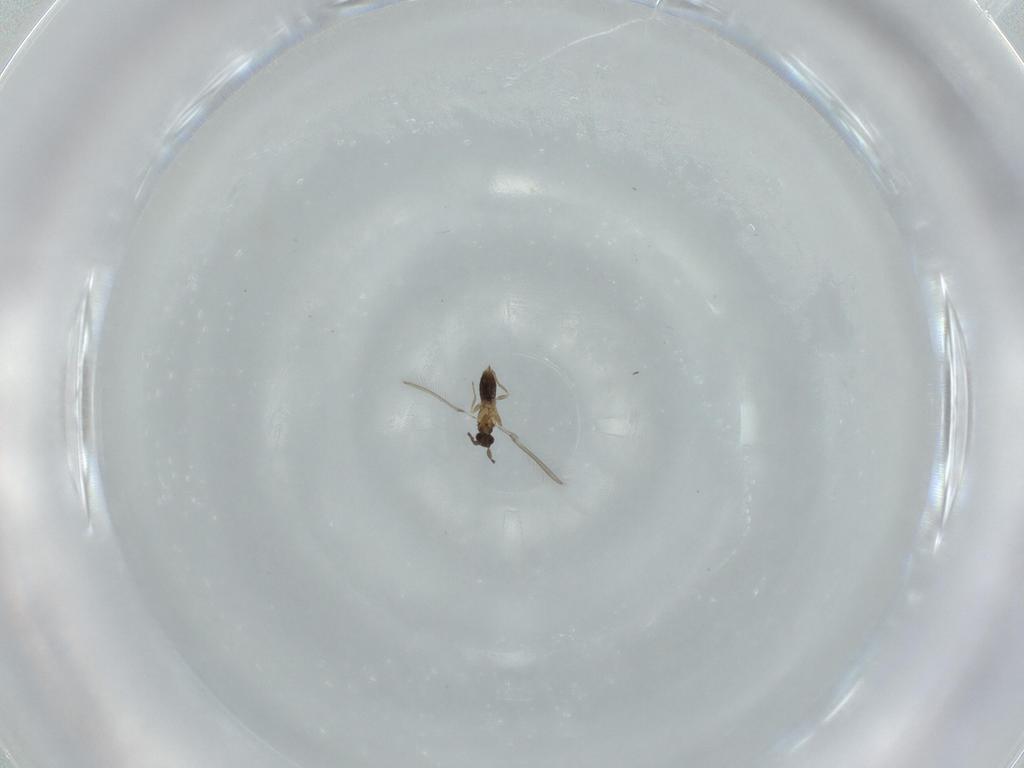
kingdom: Animalia
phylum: Arthropoda
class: Insecta
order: Hymenoptera
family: Mymaridae
